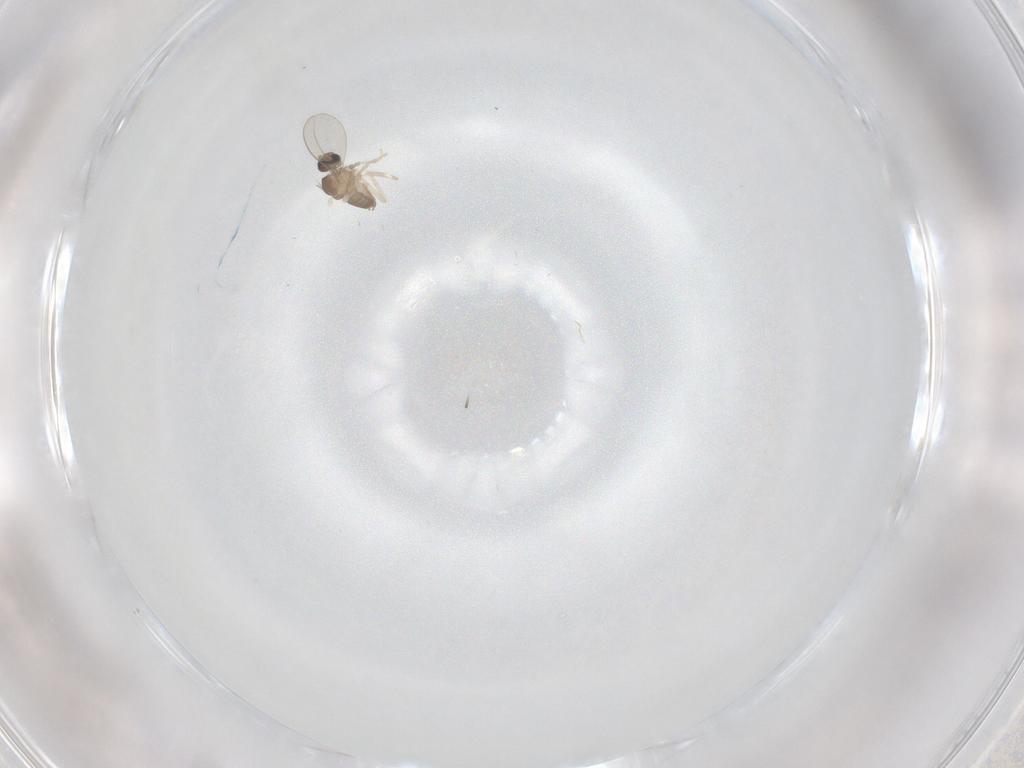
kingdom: Animalia
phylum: Arthropoda
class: Insecta
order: Diptera
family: Cecidomyiidae
